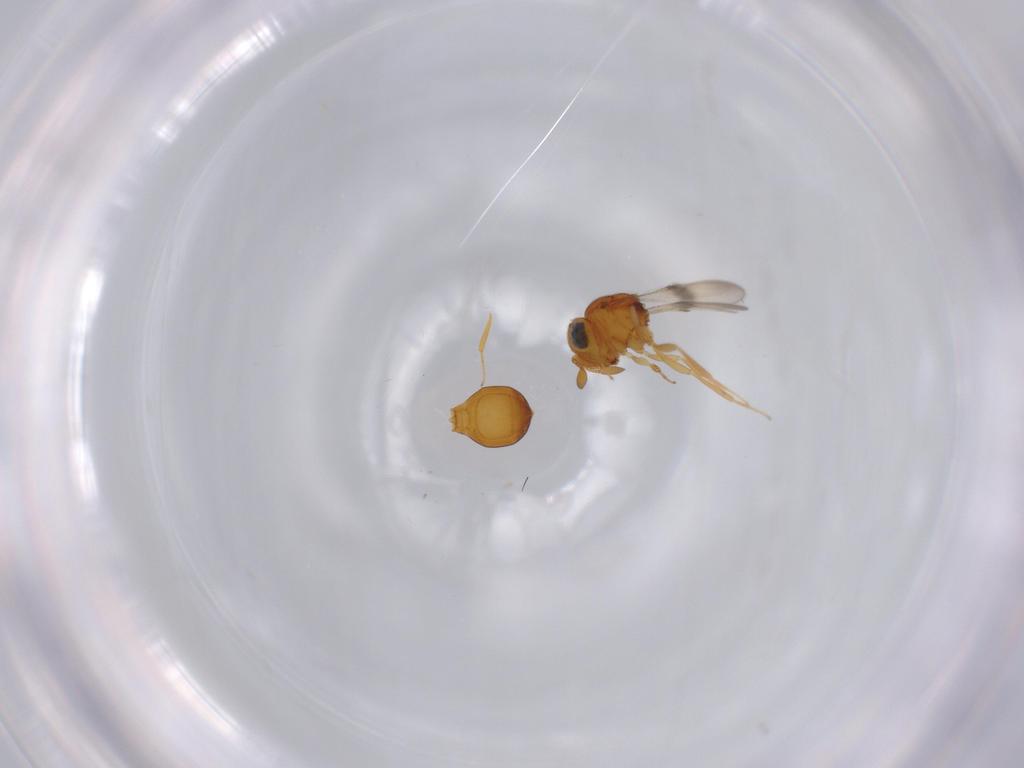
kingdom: Animalia
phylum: Arthropoda
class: Insecta
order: Hymenoptera
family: Scelionidae
